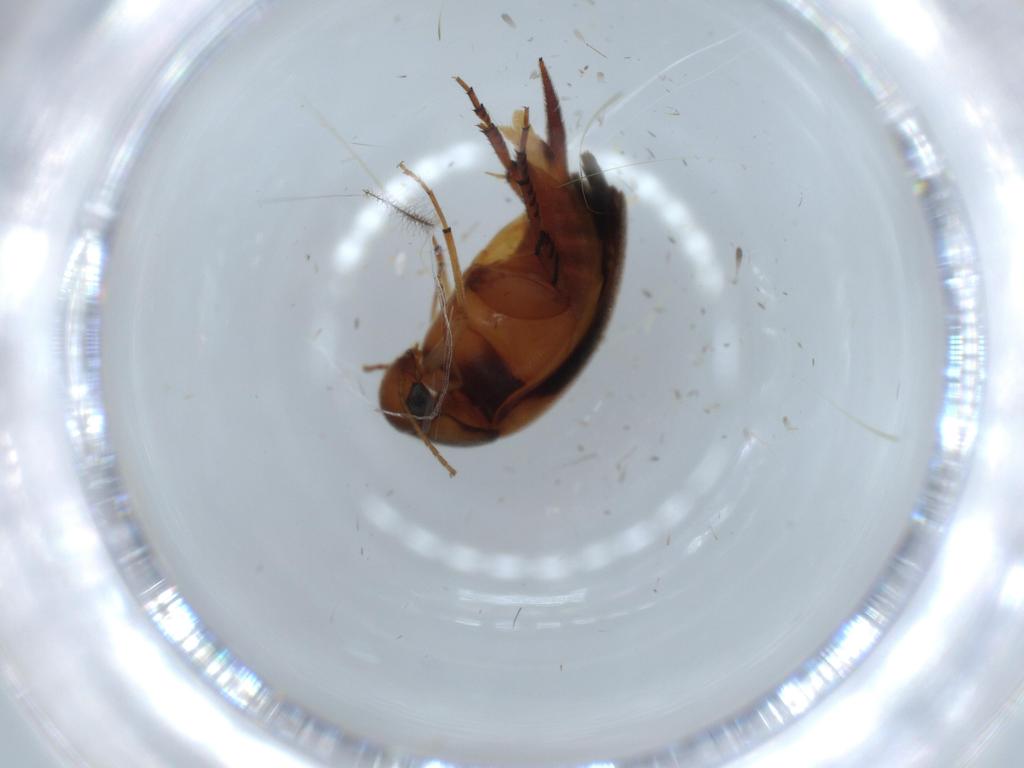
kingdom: Animalia
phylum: Arthropoda
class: Insecta
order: Coleoptera
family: Mordellidae
